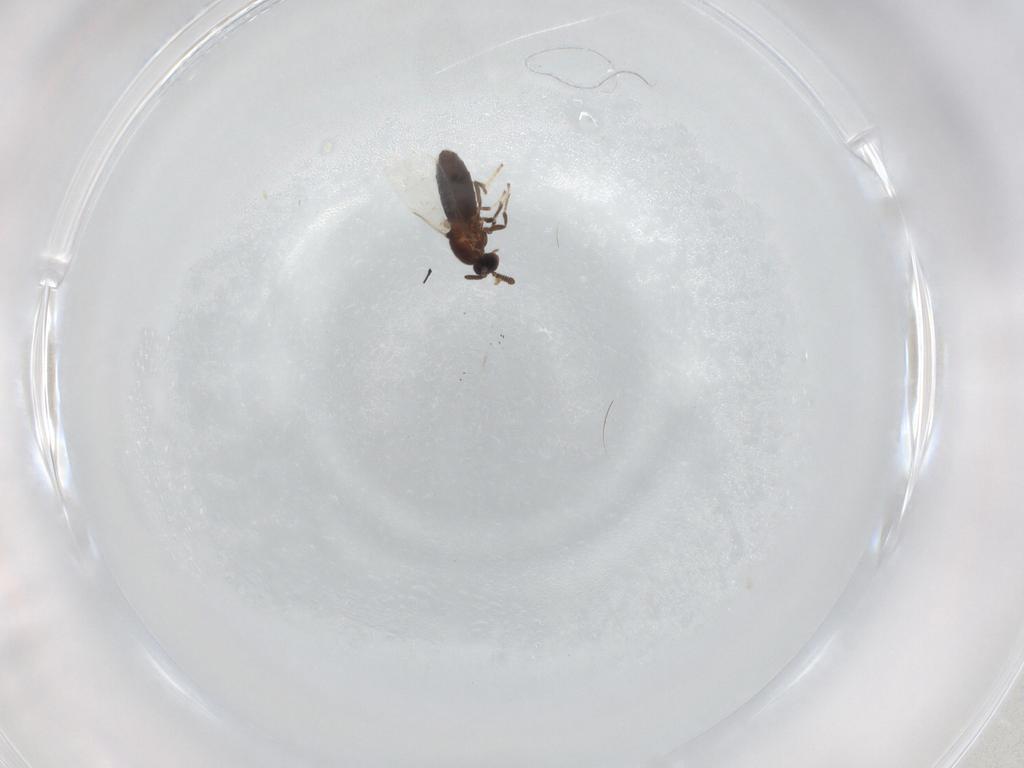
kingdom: Animalia
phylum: Arthropoda
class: Insecta
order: Diptera
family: Scatopsidae
